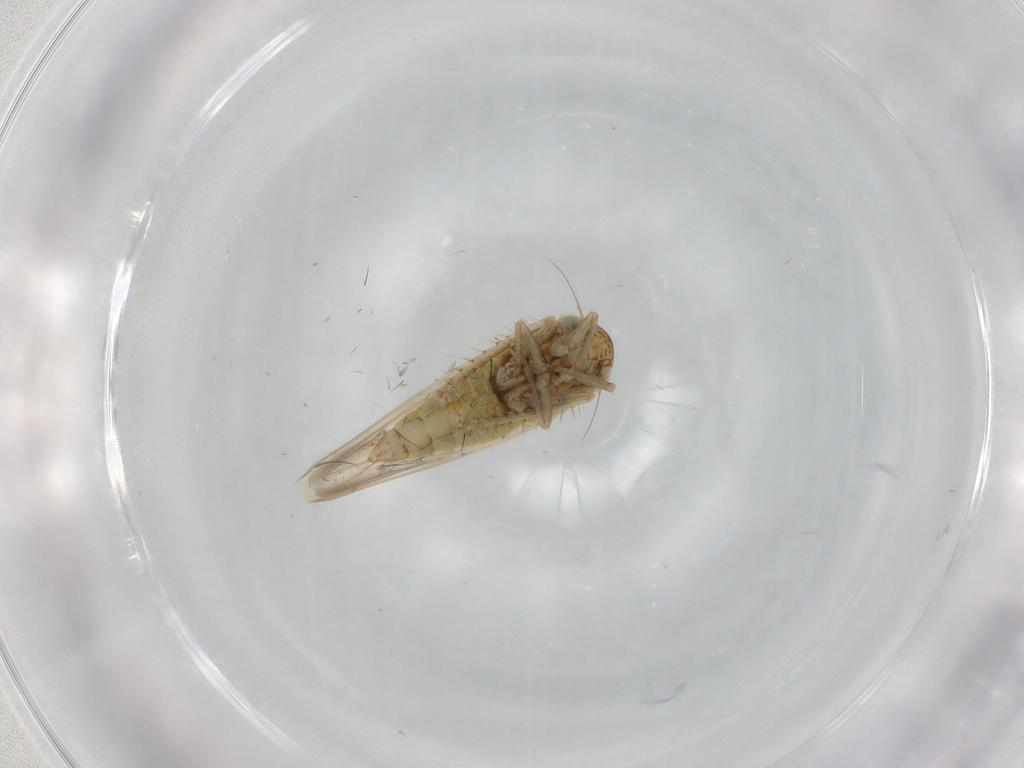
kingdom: Animalia
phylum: Arthropoda
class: Insecta
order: Hemiptera
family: Cicadellidae
